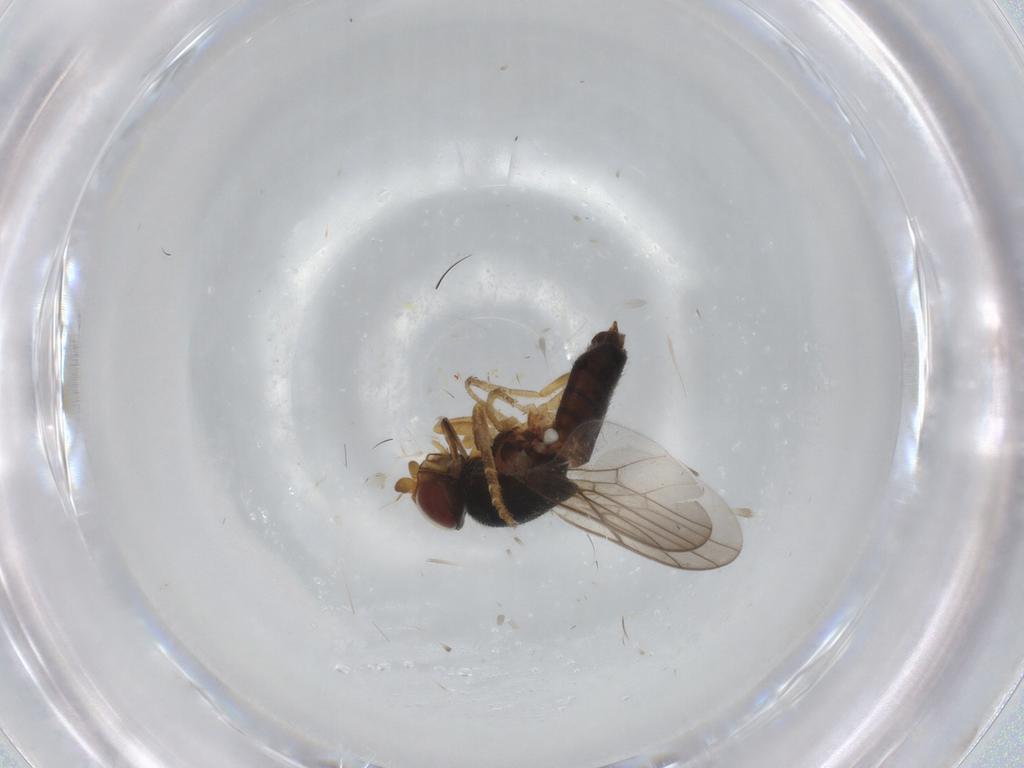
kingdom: Animalia
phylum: Arthropoda
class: Insecta
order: Diptera
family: Chloropidae
